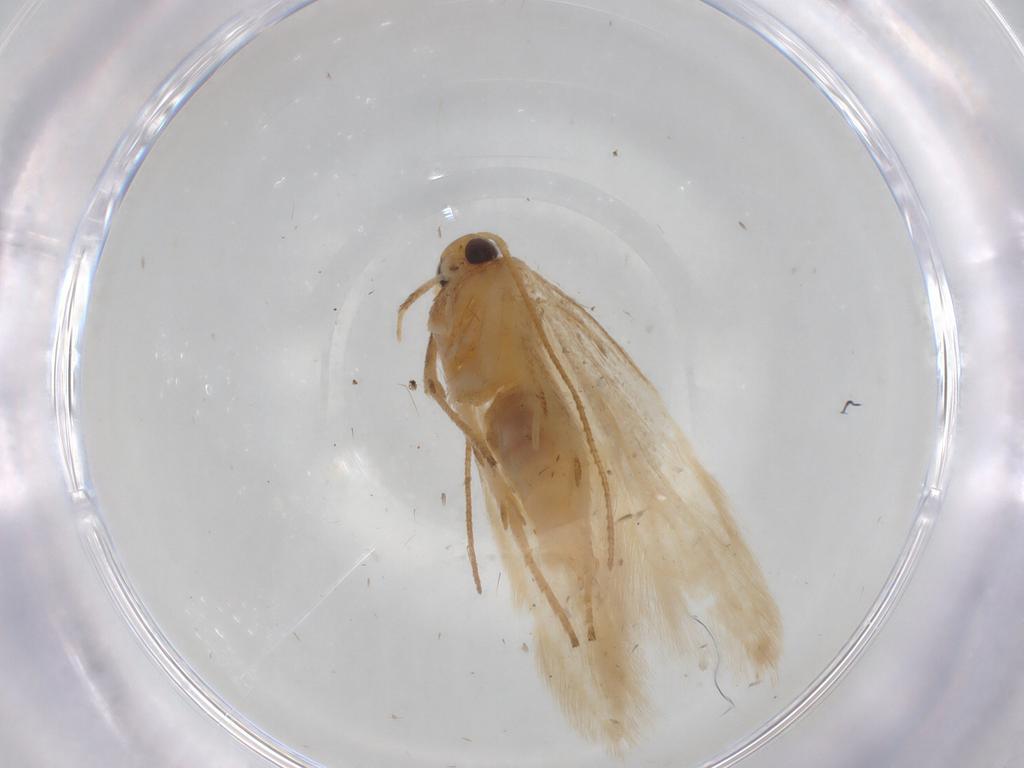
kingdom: Animalia
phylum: Arthropoda
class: Insecta
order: Lepidoptera
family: Gelechiidae
